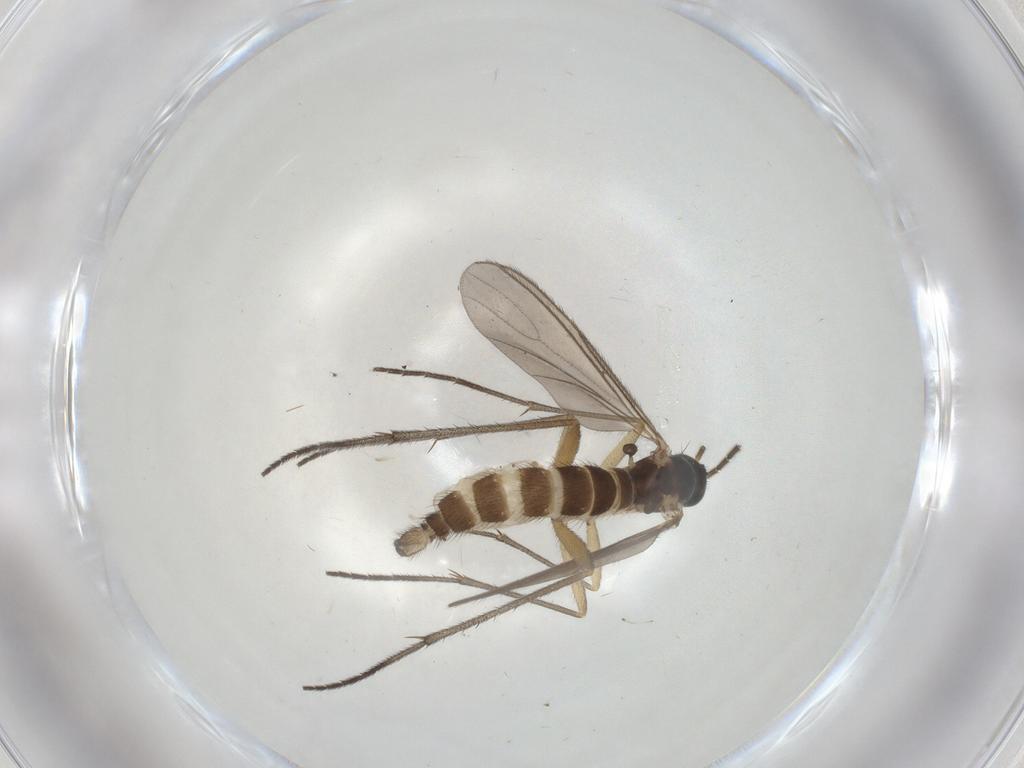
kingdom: Animalia
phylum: Arthropoda
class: Insecta
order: Diptera
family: Sciaridae
